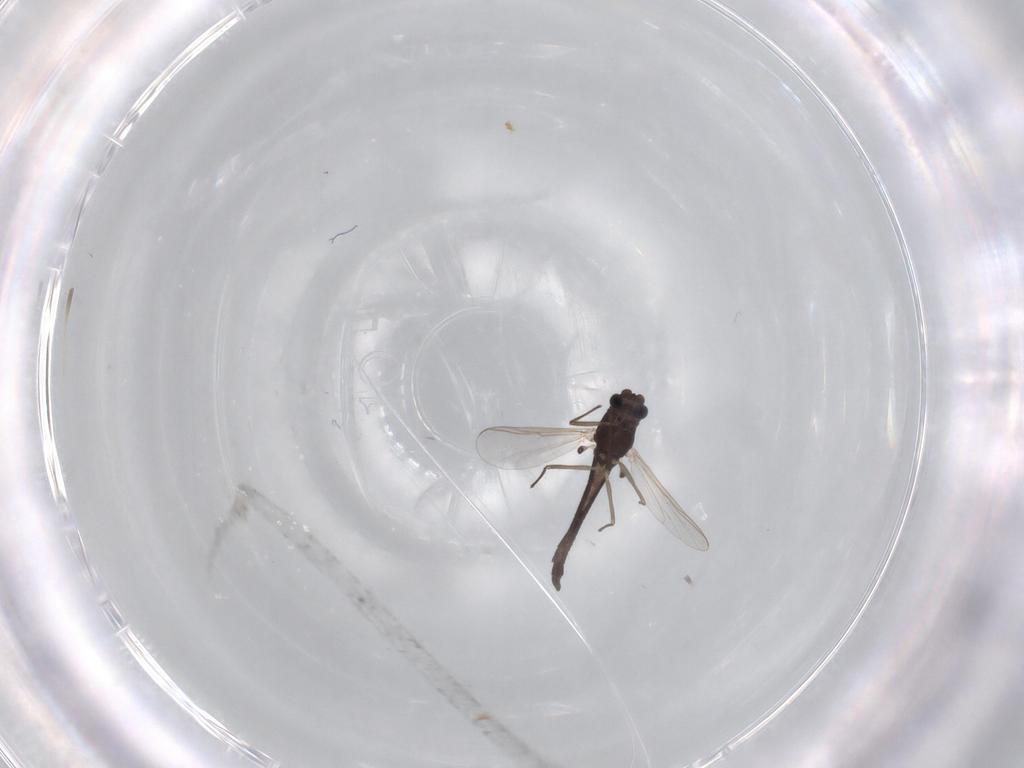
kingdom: Animalia
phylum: Arthropoda
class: Insecta
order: Diptera
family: Chironomidae
